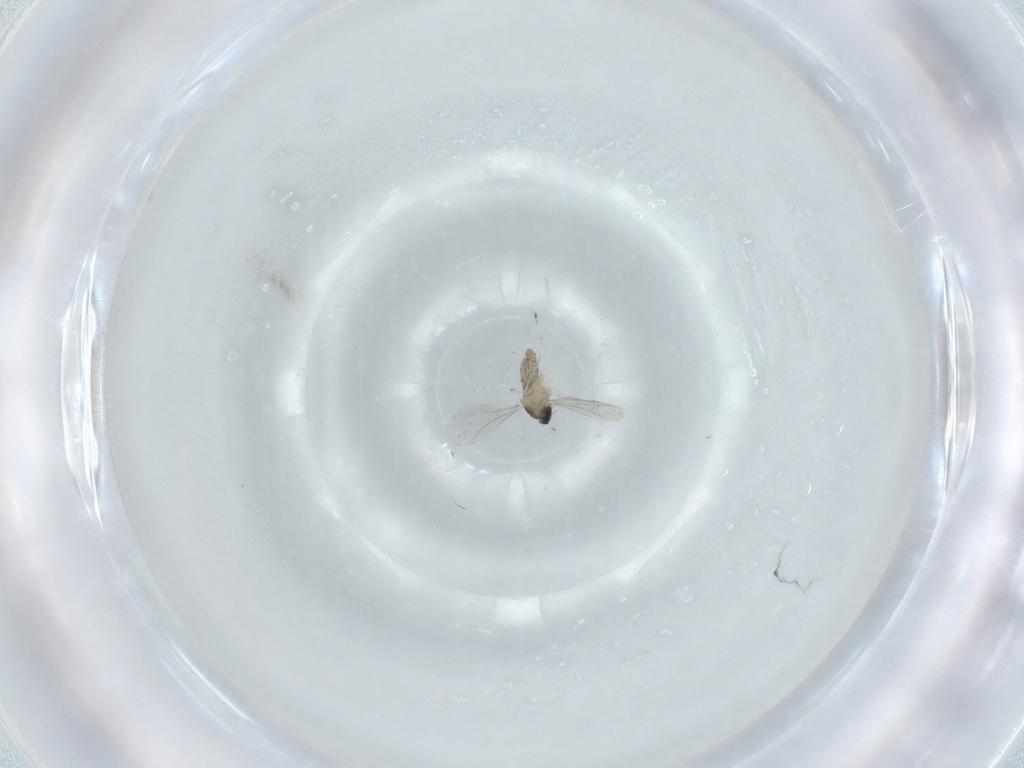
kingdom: Animalia
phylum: Arthropoda
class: Insecta
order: Diptera
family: Cecidomyiidae
